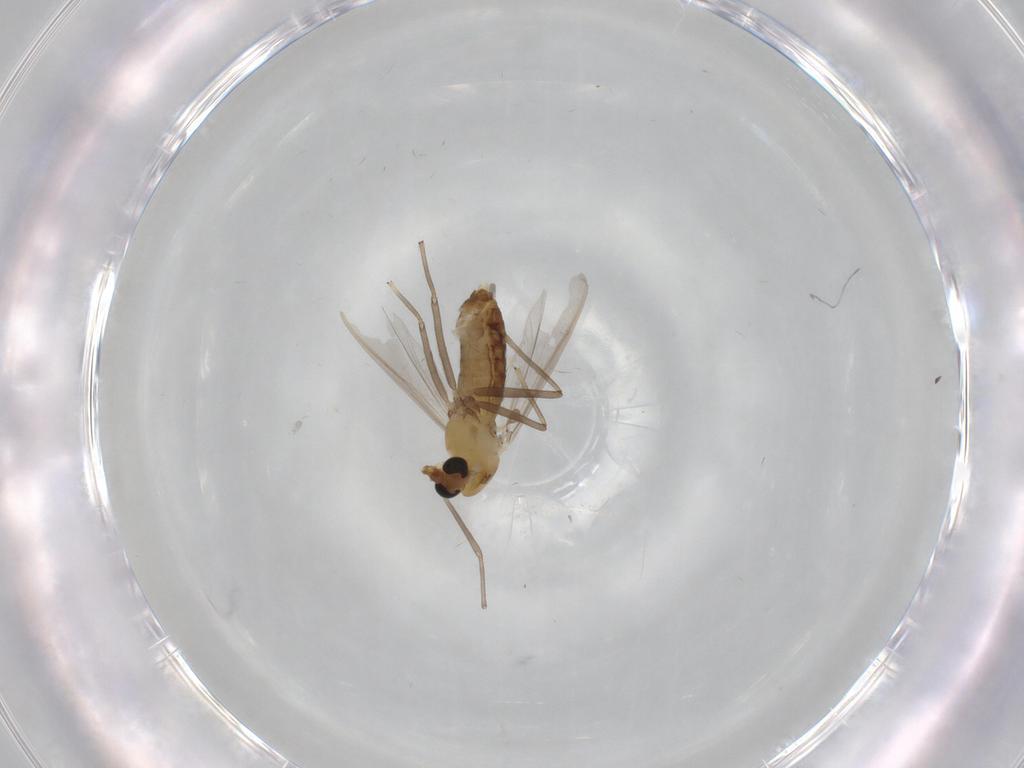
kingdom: Animalia
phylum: Arthropoda
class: Insecta
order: Diptera
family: Chironomidae
